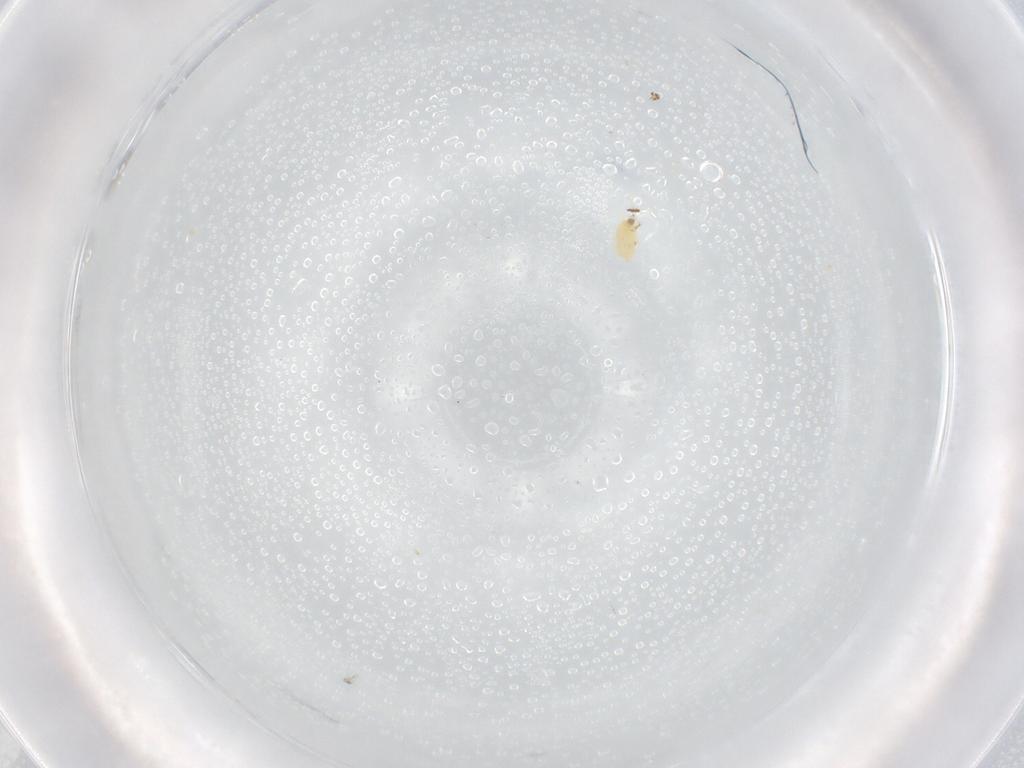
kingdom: Animalia
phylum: Arthropoda
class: Arachnida
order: Trombidiformes
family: Eupodidae
